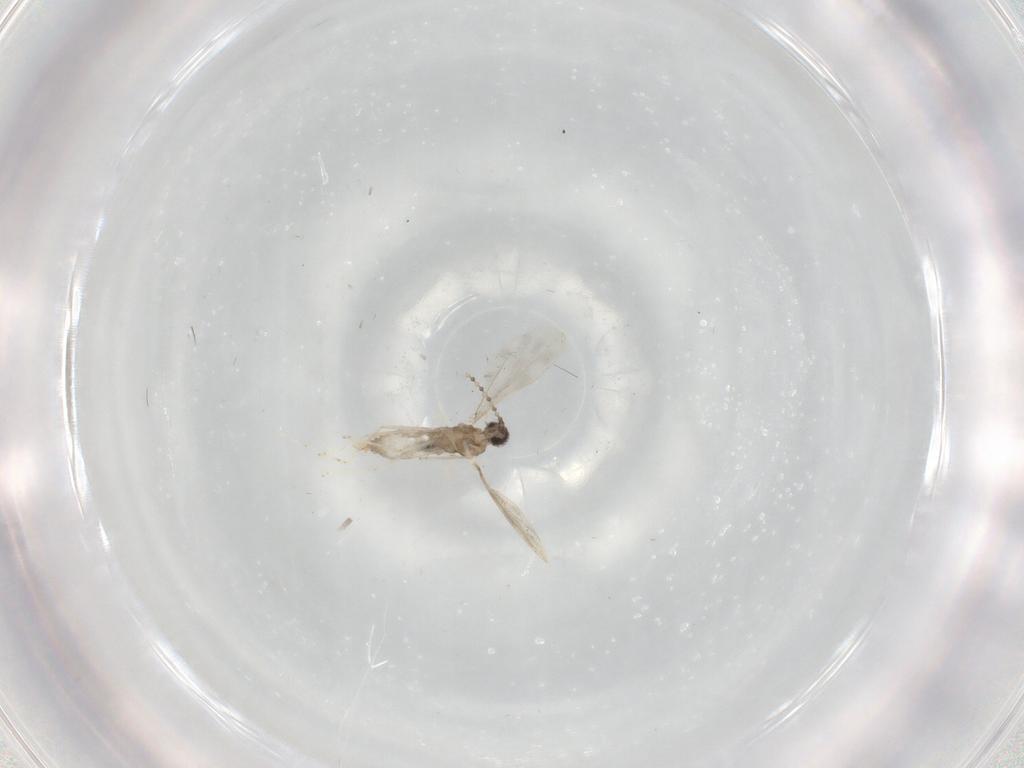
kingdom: Animalia
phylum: Arthropoda
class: Insecta
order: Diptera
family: Cecidomyiidae
